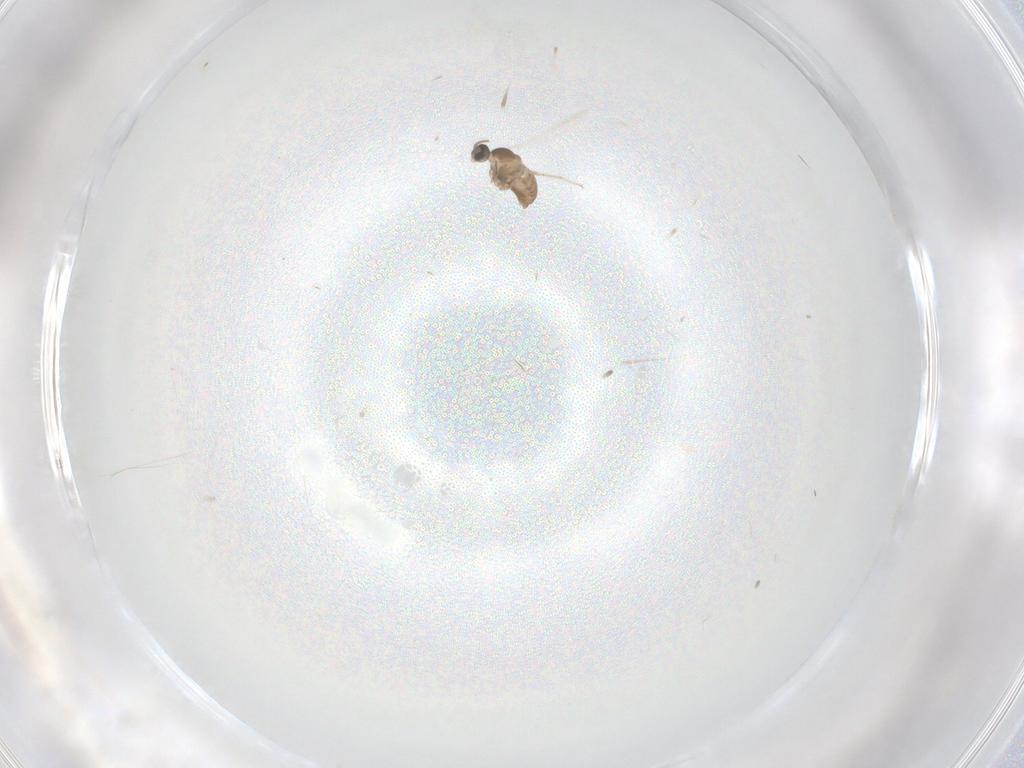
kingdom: Animalia
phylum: Arthropoda
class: Insecta
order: Diptera
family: Cecidomyiidae
